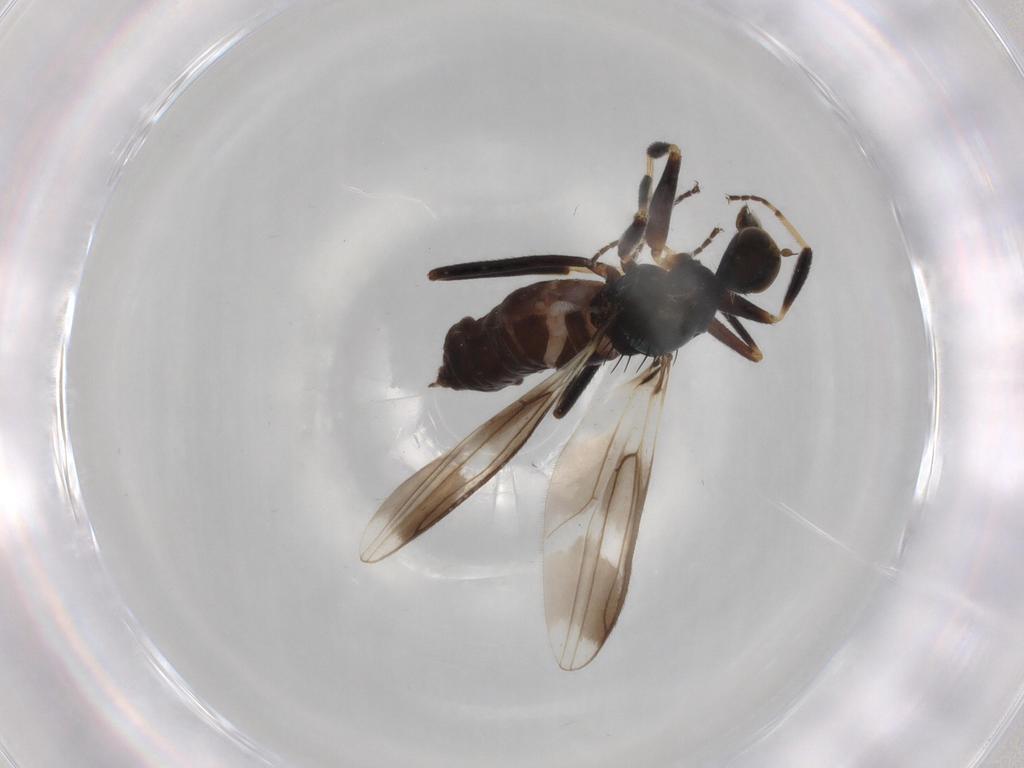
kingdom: Animalia
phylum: Arthropoda
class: Insecta
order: Diptera
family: Hybotidae
